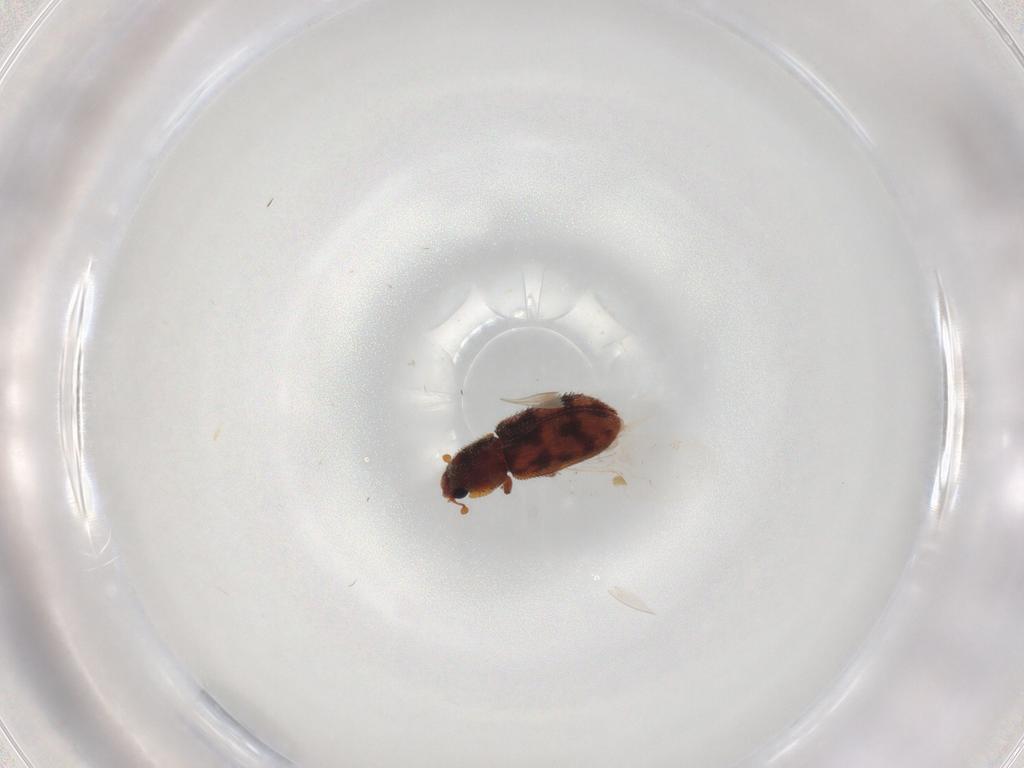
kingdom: Animalia
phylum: Arthropoda
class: Insecta
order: Coleoptera
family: Zopheridae
